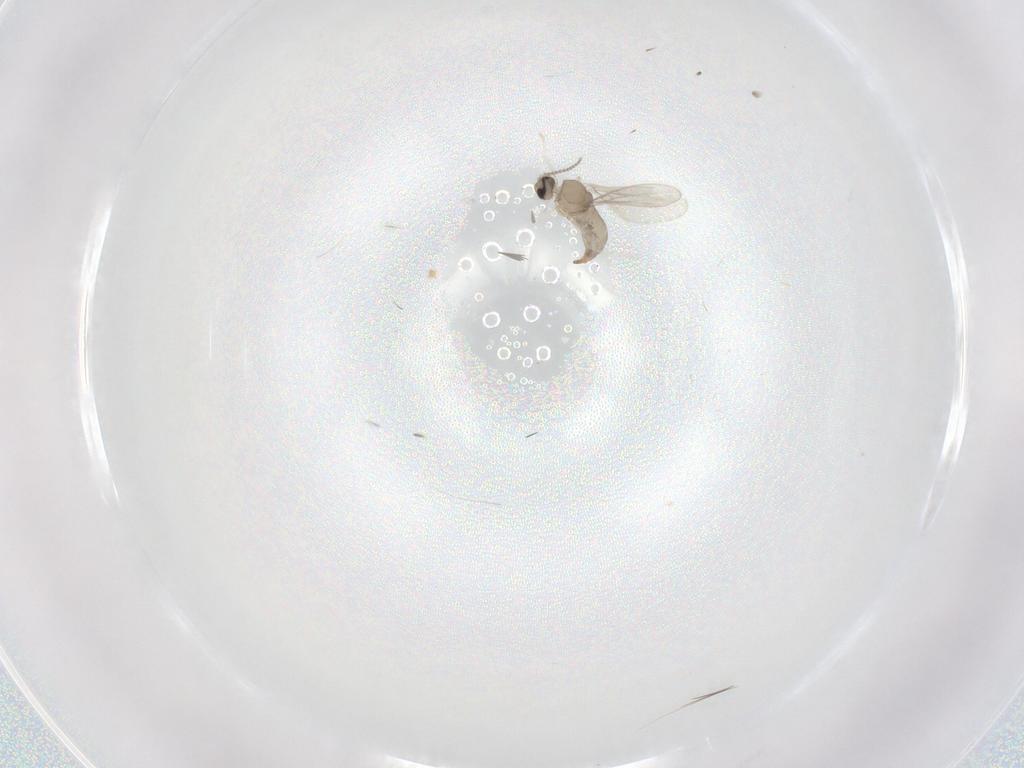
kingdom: Animalia
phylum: Arthropoda
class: Insecta
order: Diptera
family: Cecidomyiidae
